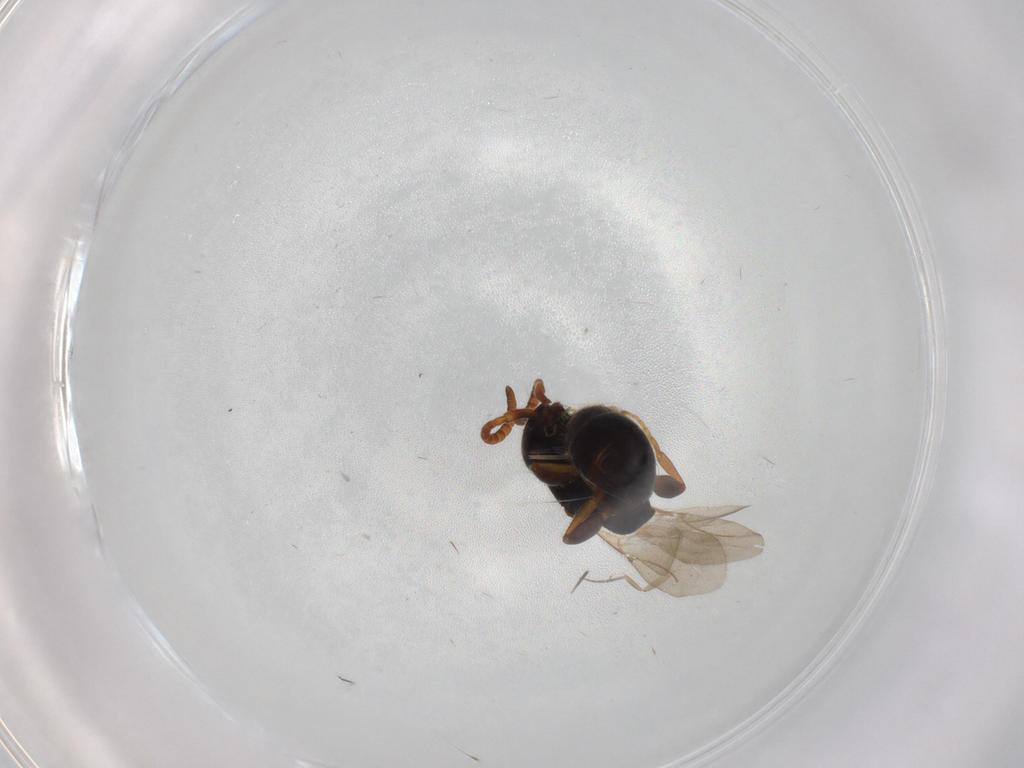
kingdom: Animalia
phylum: Arthropoda
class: Insecta
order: Hymenoptera
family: Bethylidae
